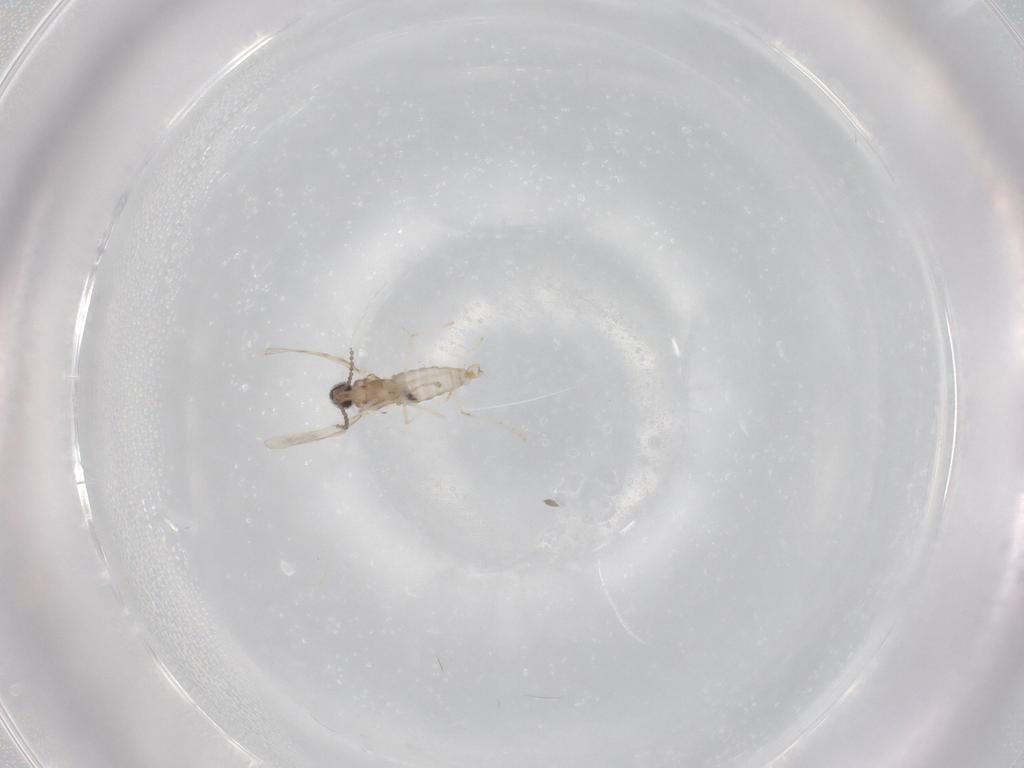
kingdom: Animalia
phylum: Arthropoda
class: Insecta
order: Diptera
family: Cecidomyiidae
